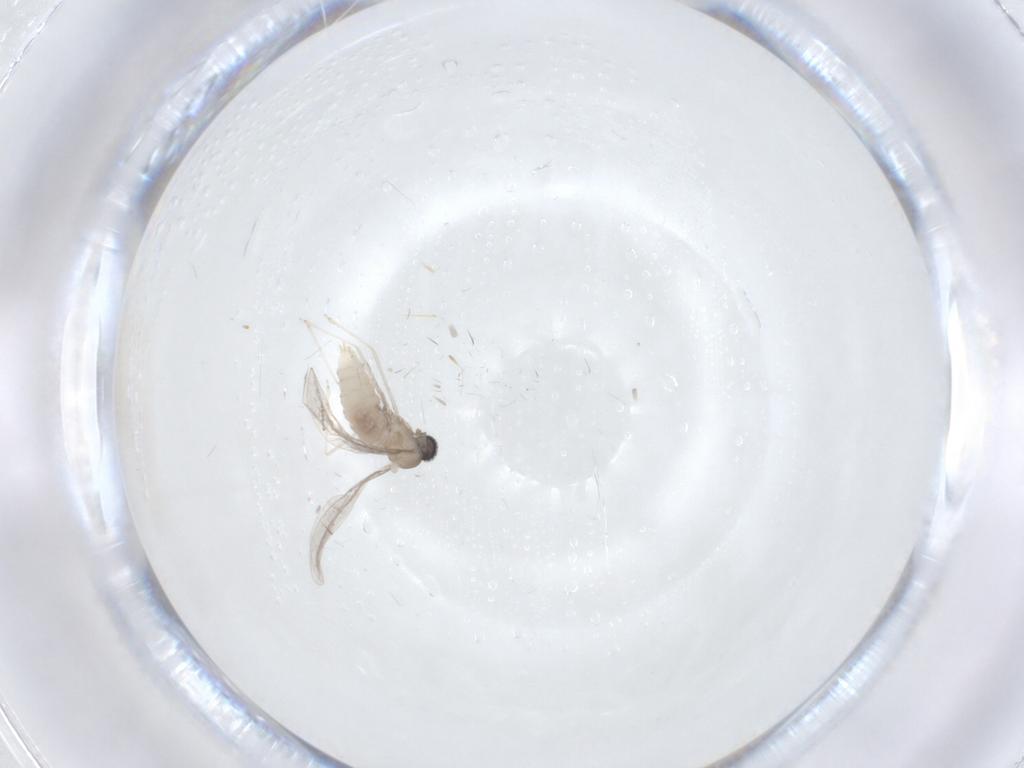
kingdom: Animalia
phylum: Arthropoda
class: Insecta
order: Diptera
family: Cecidomyiidae
